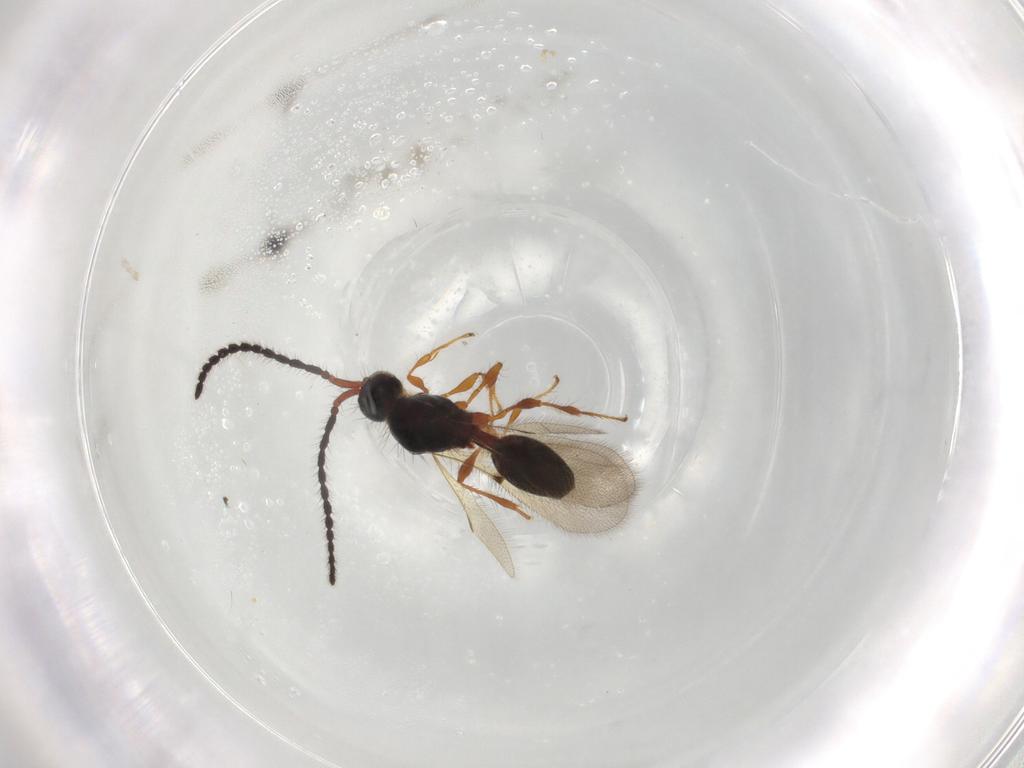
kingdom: Animalia
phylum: Arthropoda
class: Insecta
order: Hymenoptera
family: Diapriidae
